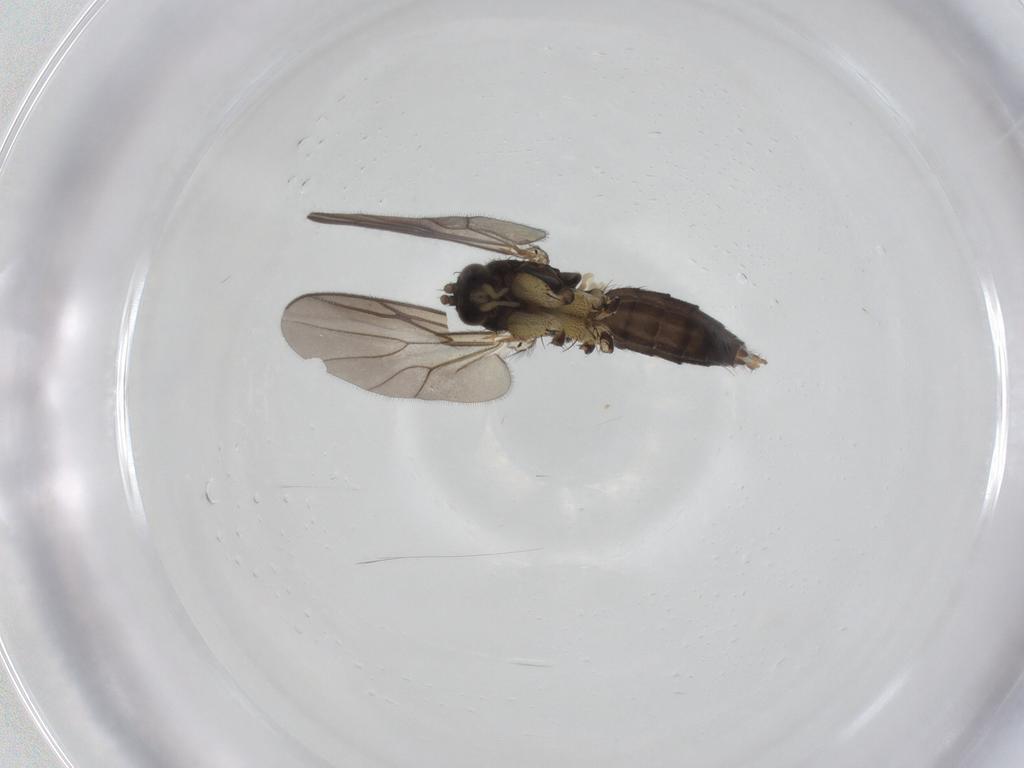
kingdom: Animalia
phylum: Arthropoda
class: Insecta
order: Diptera
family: Sciaridae
